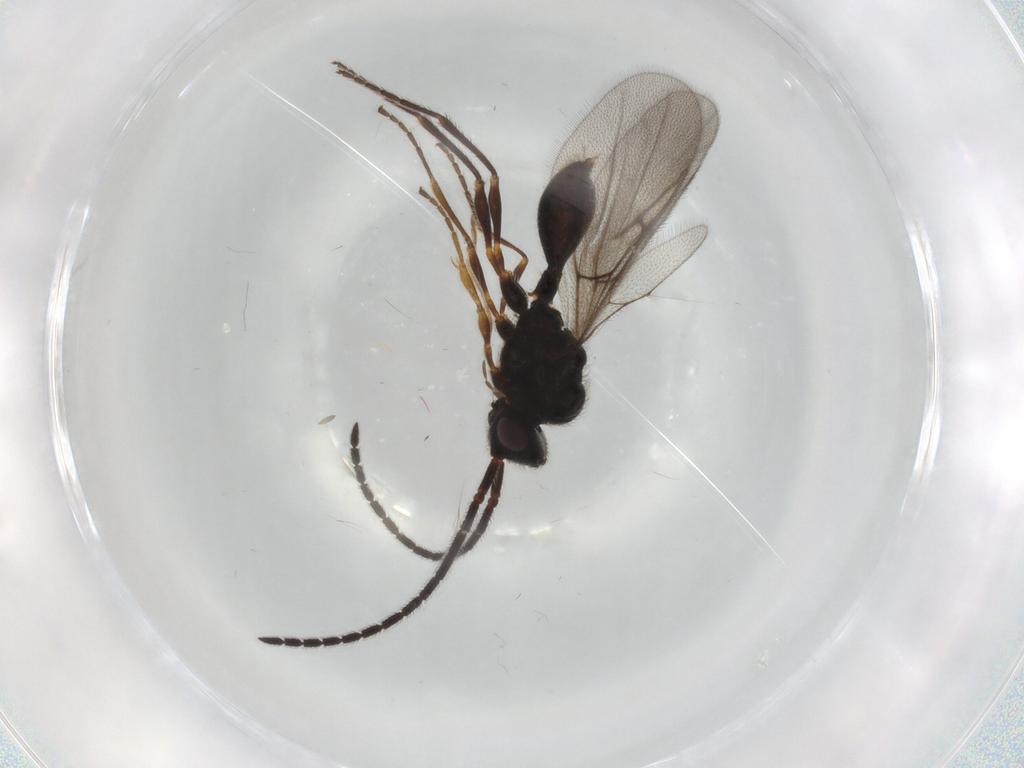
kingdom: Animalia
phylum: Arthropoda
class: Insecta
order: Hymenoptera
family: Diapriidae
